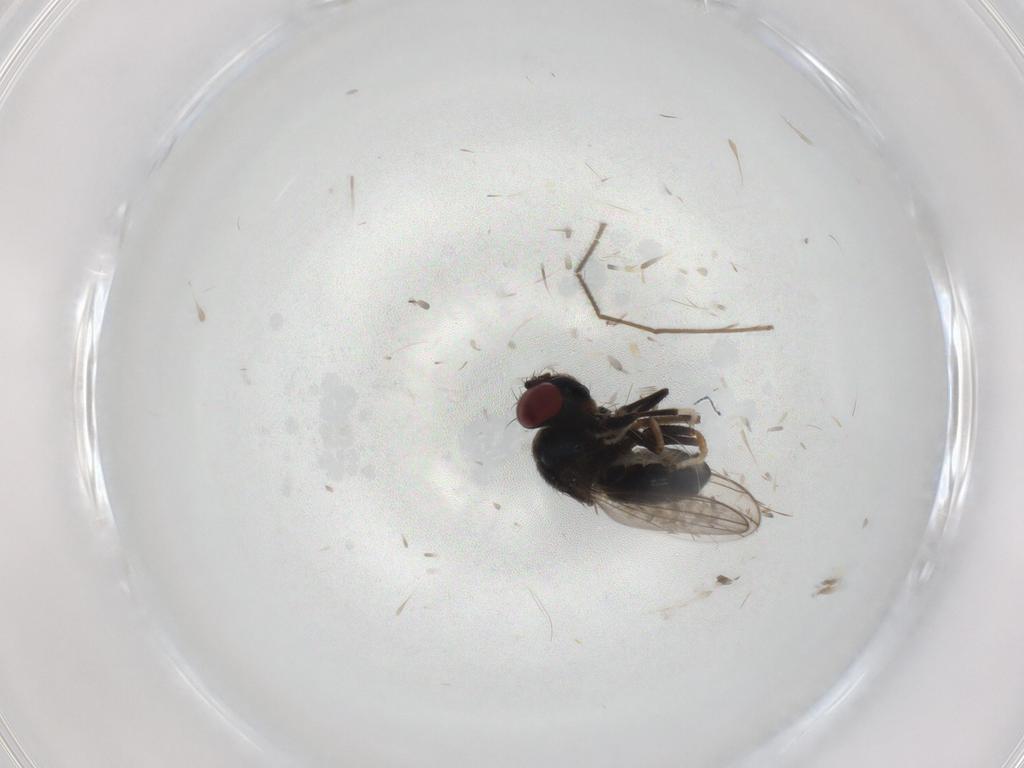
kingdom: Animalia
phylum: Arthropoda
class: Insecta
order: Diptera
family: Ephydridae
